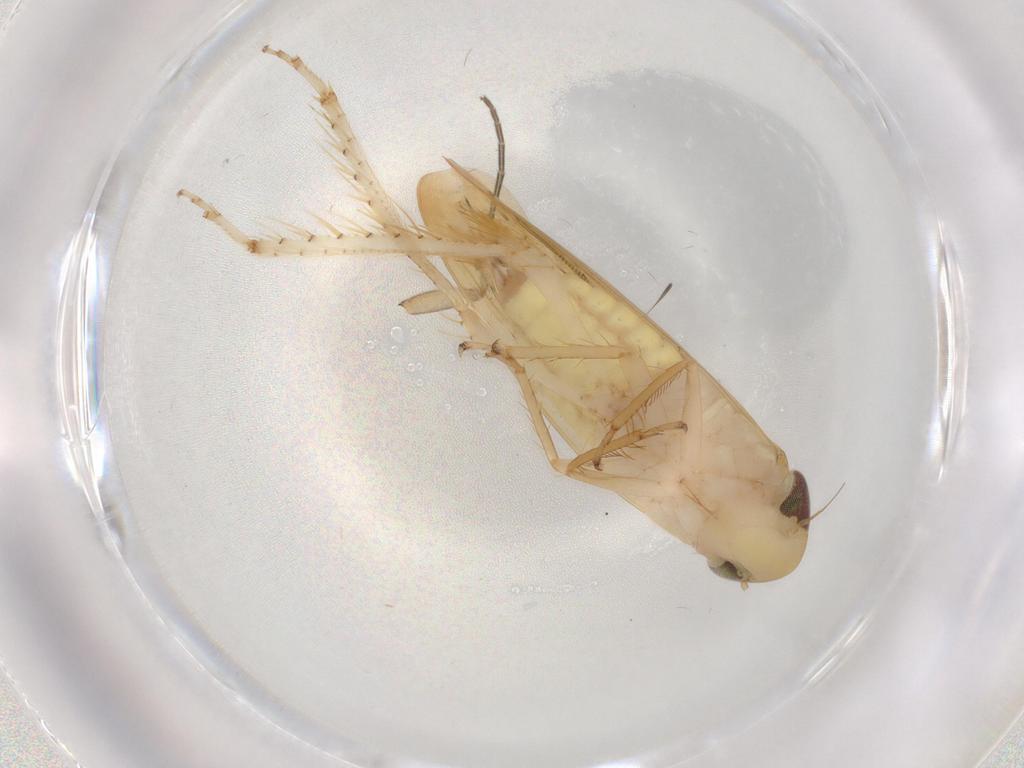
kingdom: Animalia
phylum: Arthropoda
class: Insecta
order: Hemiptera
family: Cicadellidae
